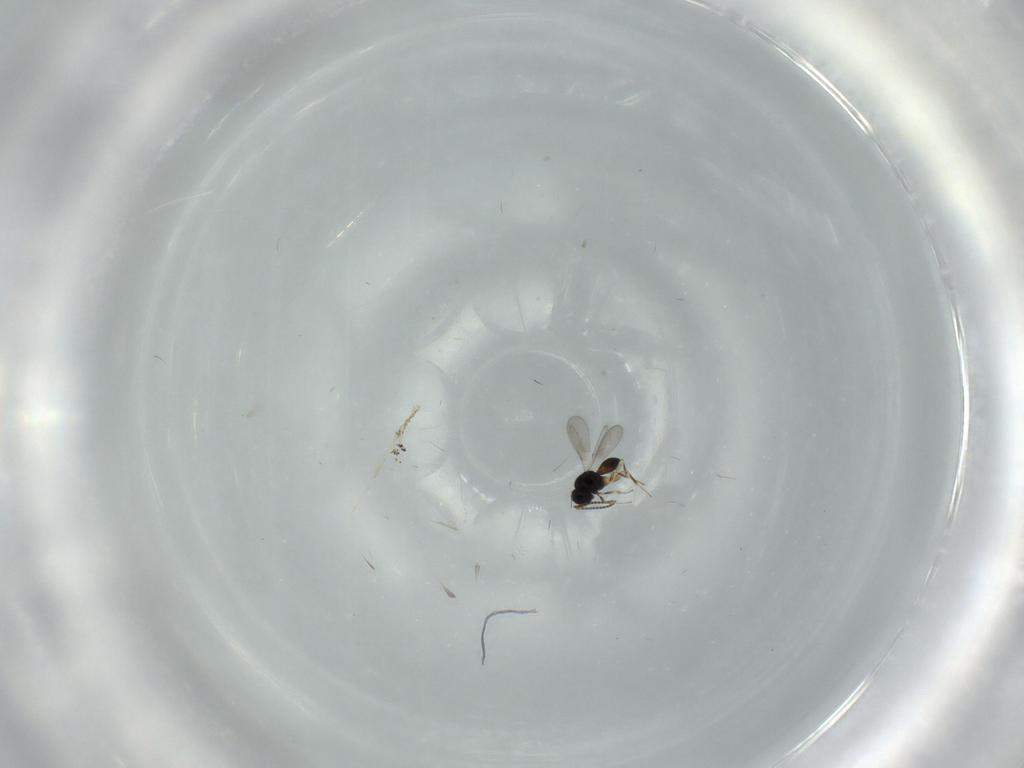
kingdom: Animalia
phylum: Arthropoda
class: Insecta
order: Hymenoptera
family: Scelionidae
